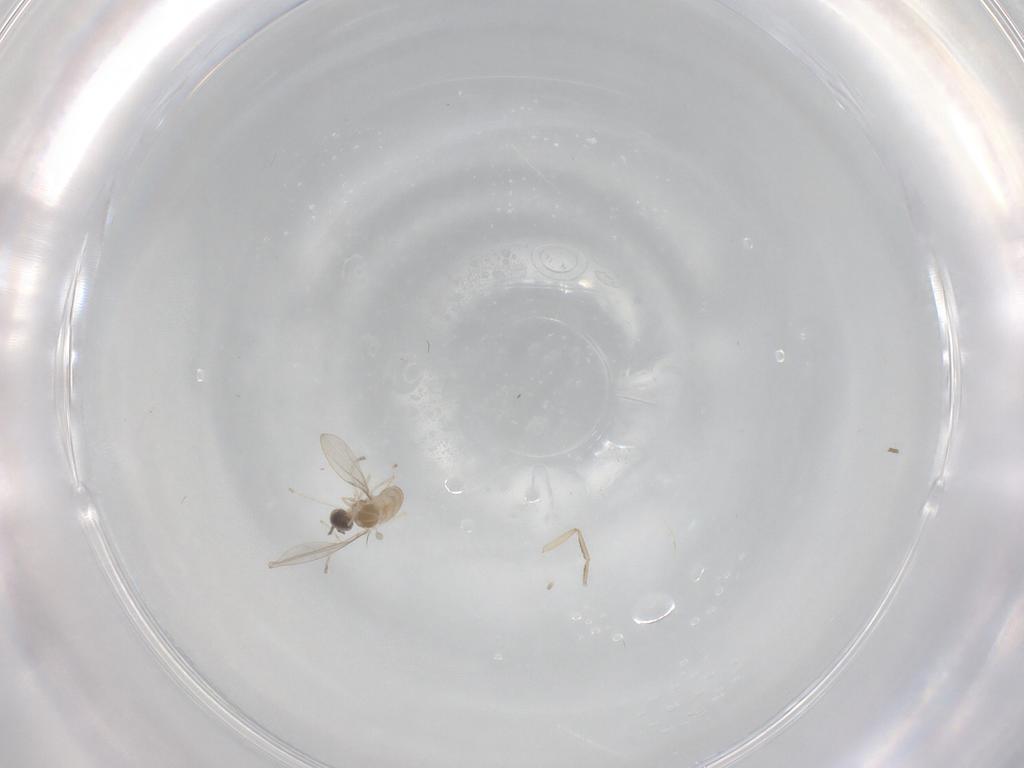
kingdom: Animalia
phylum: Arthropoda
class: Insecta
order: Diptera
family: Cecidomyiidae
